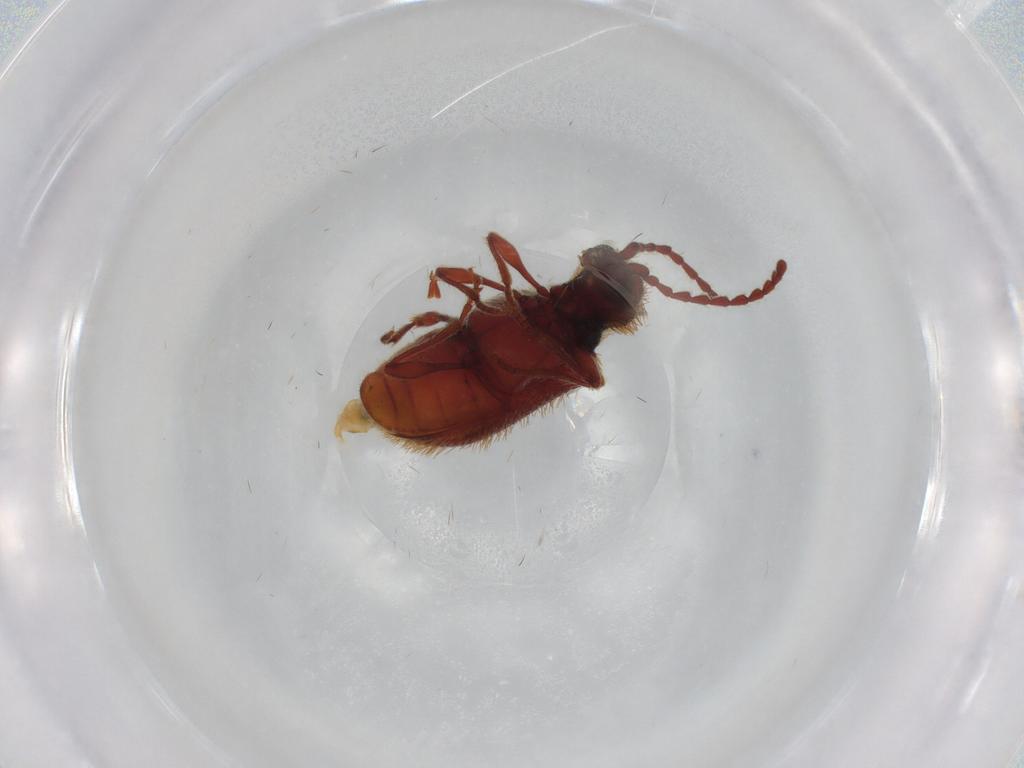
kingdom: Animalia
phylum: Arthropoda
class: Insecta
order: Coleoptera
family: Ptinidae
